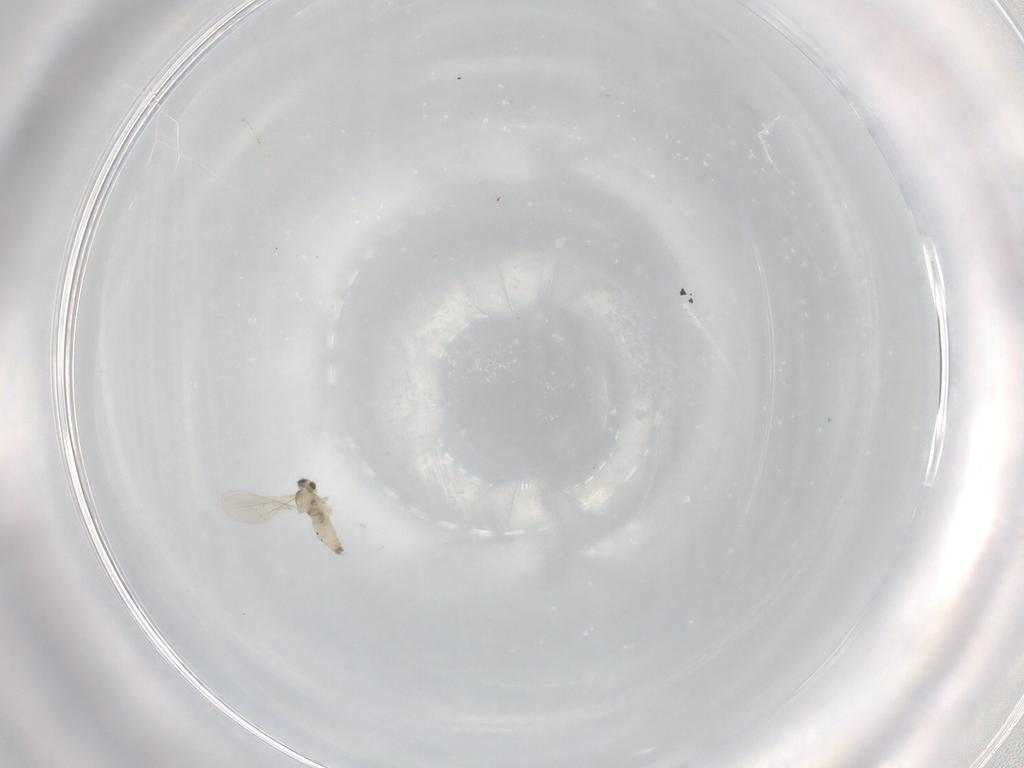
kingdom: Animalia
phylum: Arthropoda
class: Insecta
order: Diptera
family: Cecidomyiidae
